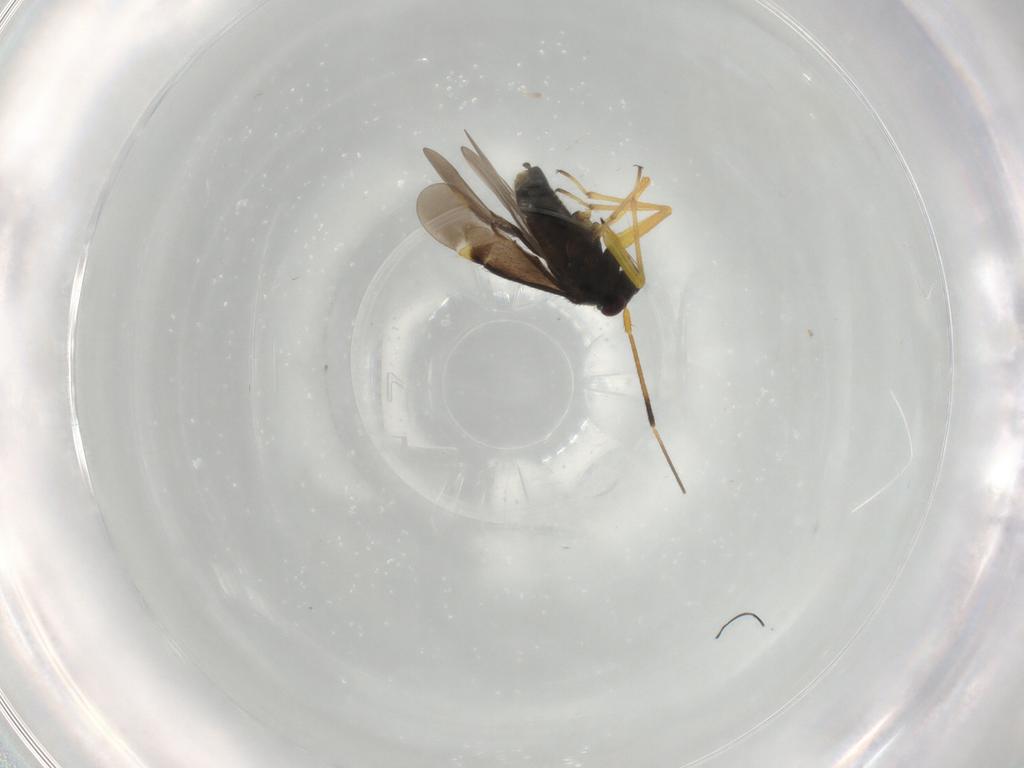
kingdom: Animalia
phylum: Arthropoda
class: Insecta
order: Hemiptera
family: Miridae
